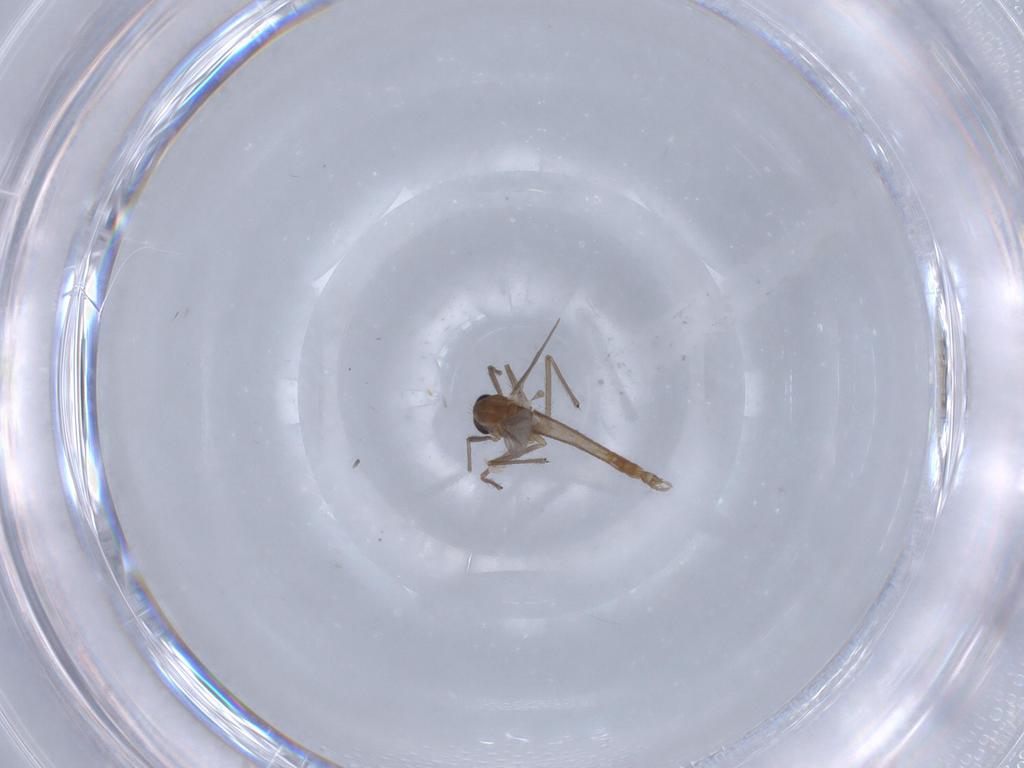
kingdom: Animalia
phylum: Arthropoda
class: Insecta
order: Diptera
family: Chironomidae
